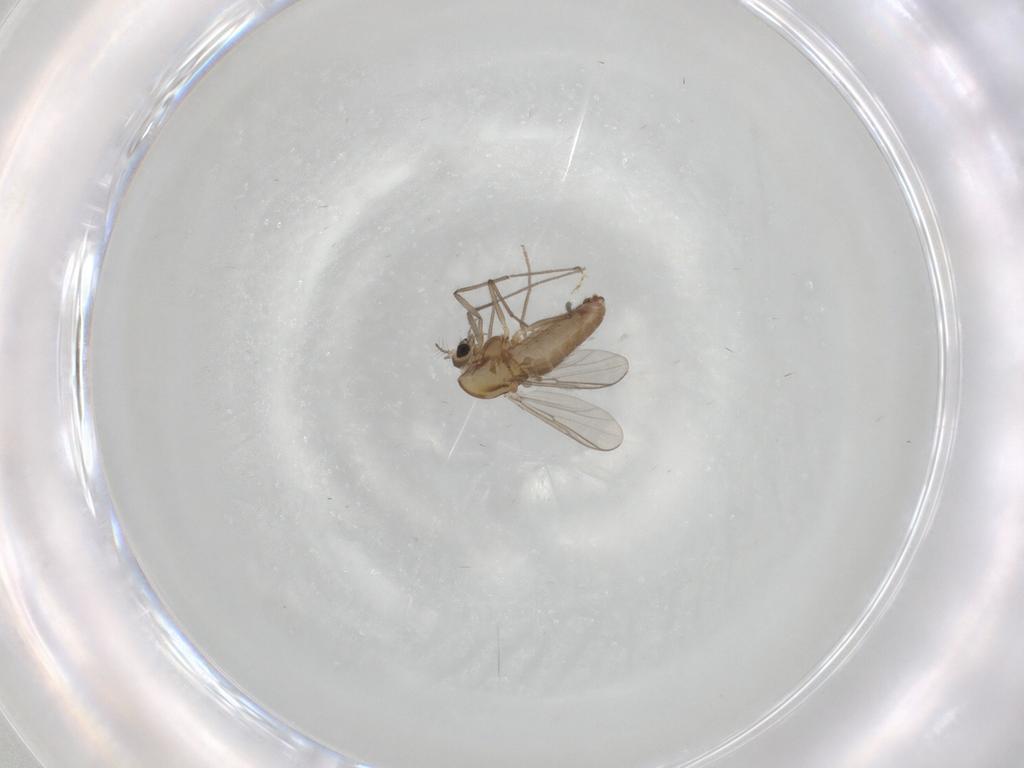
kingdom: Animalia
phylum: Arthropoda
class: Insecta
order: Diptera
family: Chironomidae
